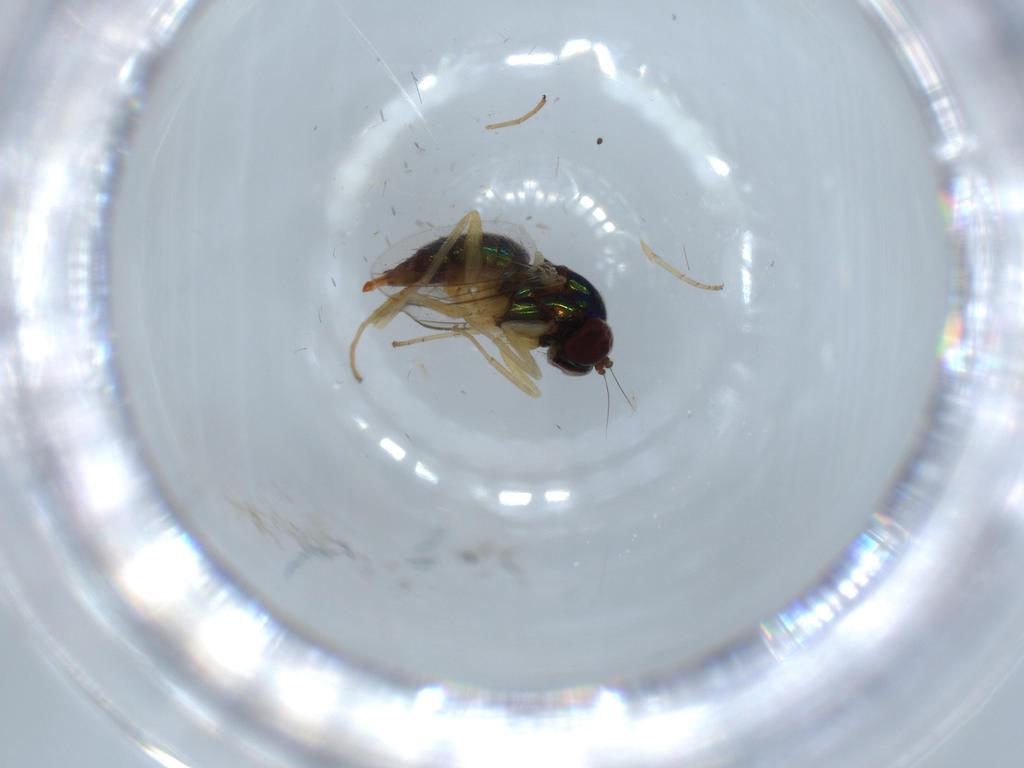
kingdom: Animalia
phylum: Arthropoda
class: Insecta
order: Diptera
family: Dolichopodidae
